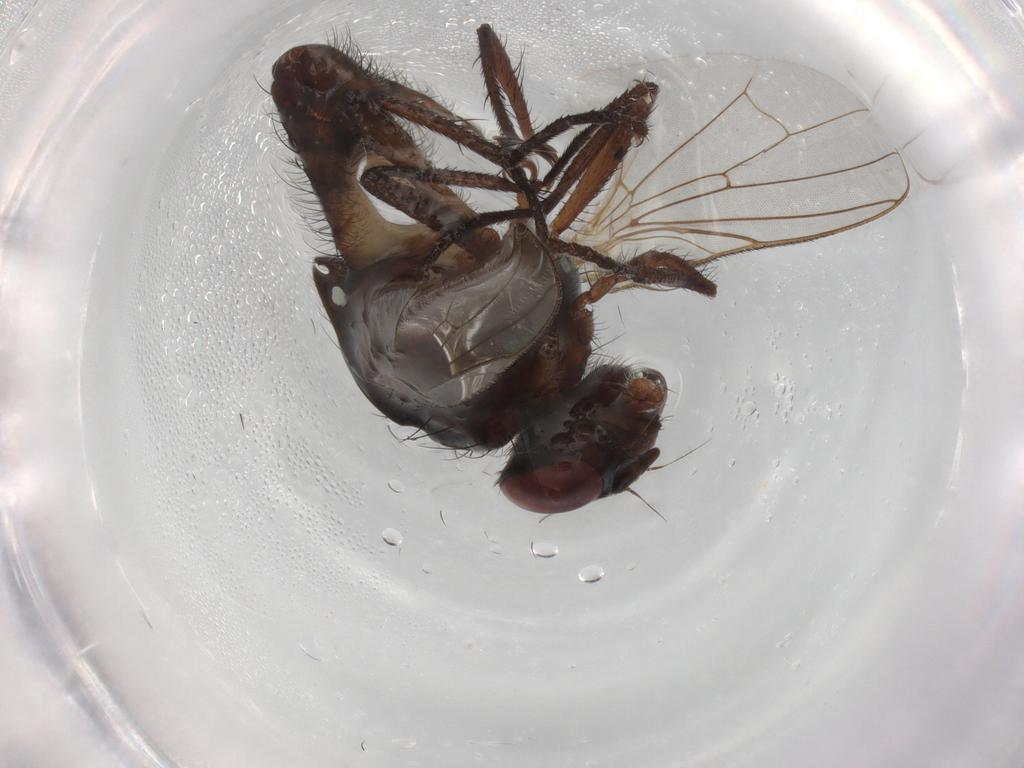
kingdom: Animalia
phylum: Arthropoda
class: Insecta
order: Diptera
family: Anthomyiidae
